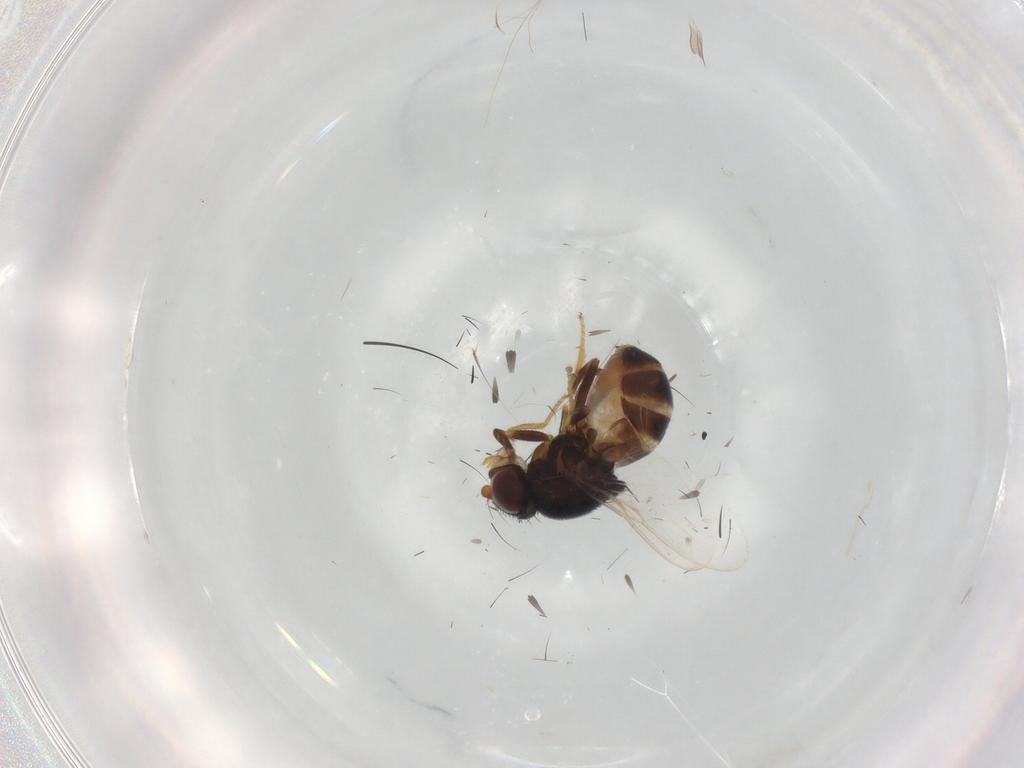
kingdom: Animalia
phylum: Arthropoda
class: Insecta
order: Diptera
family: Chloropidae
